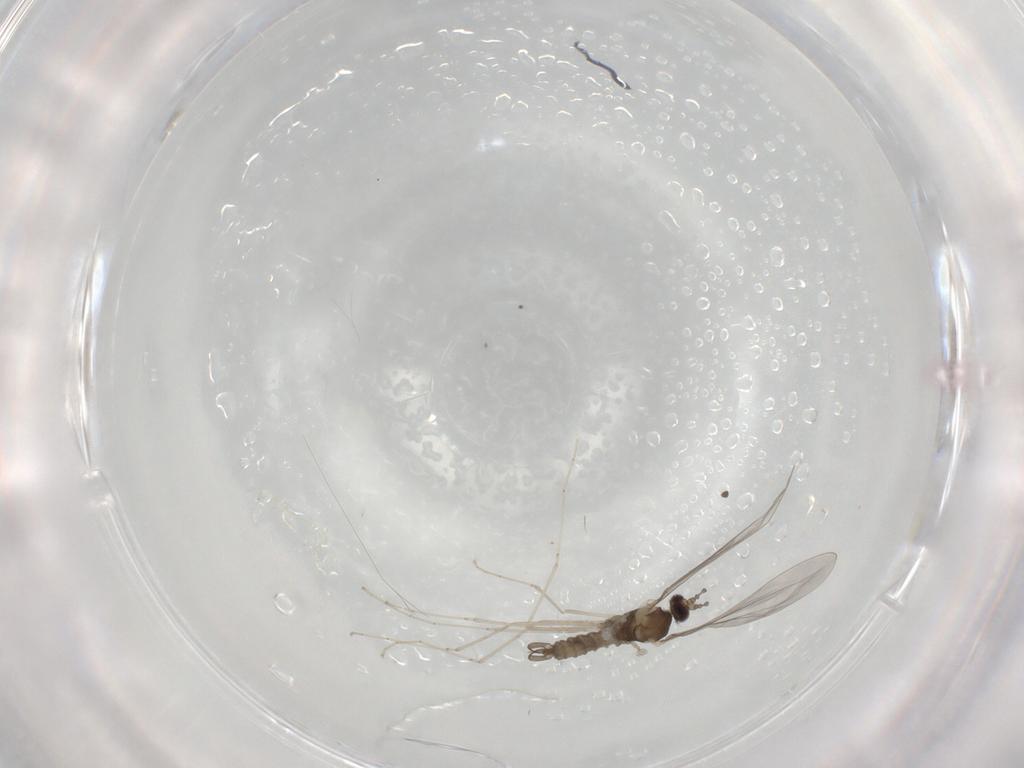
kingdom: Animalia
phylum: Arthropoda
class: Insecta
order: Diptera
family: Cecidomyiidae
